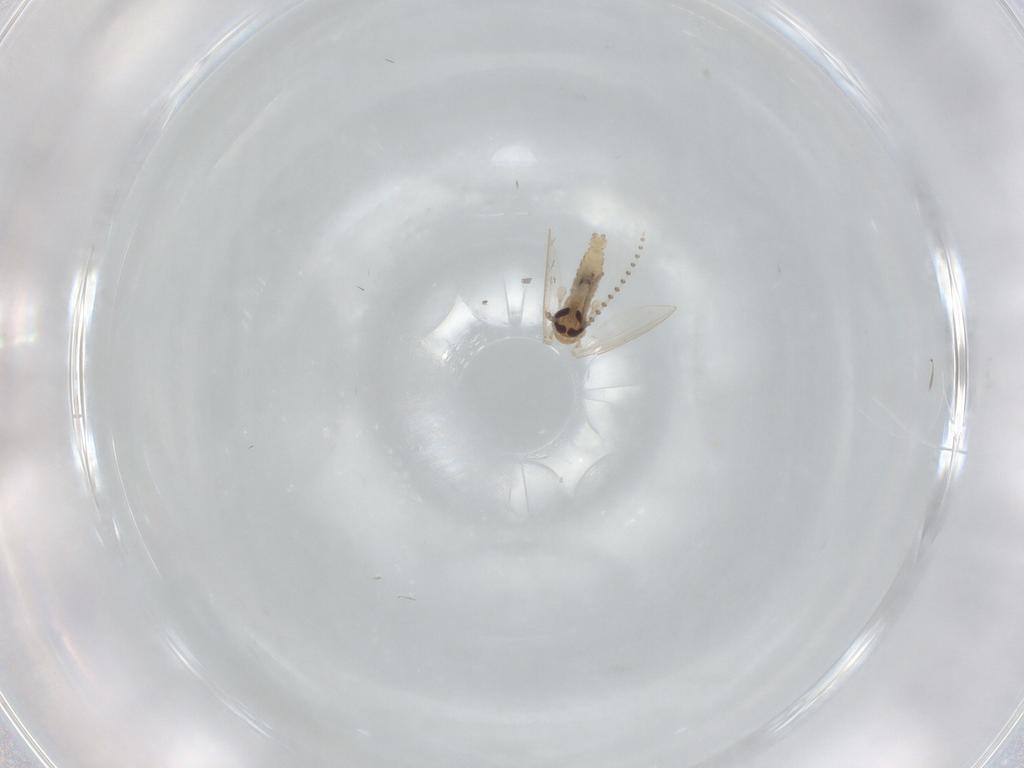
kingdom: Animalia
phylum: Arthropoda
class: Insecta
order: Diptera
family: Psychodidae
